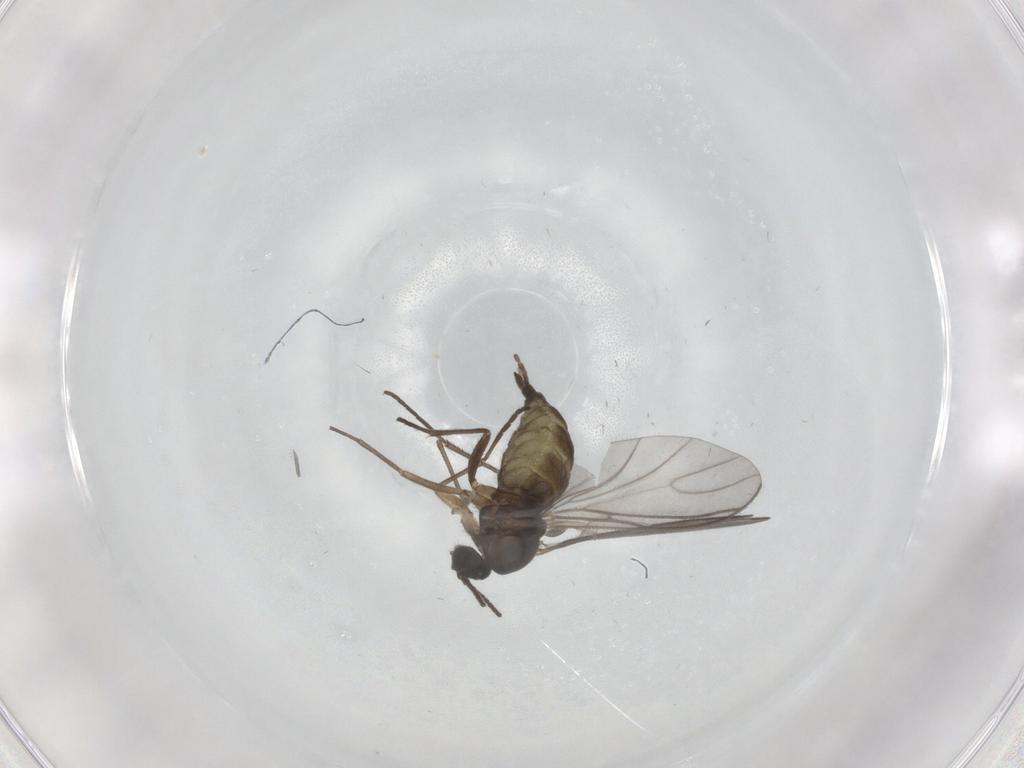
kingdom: Animalia
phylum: Arthropoda
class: Insecta
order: Diptera
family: Sciaridae
